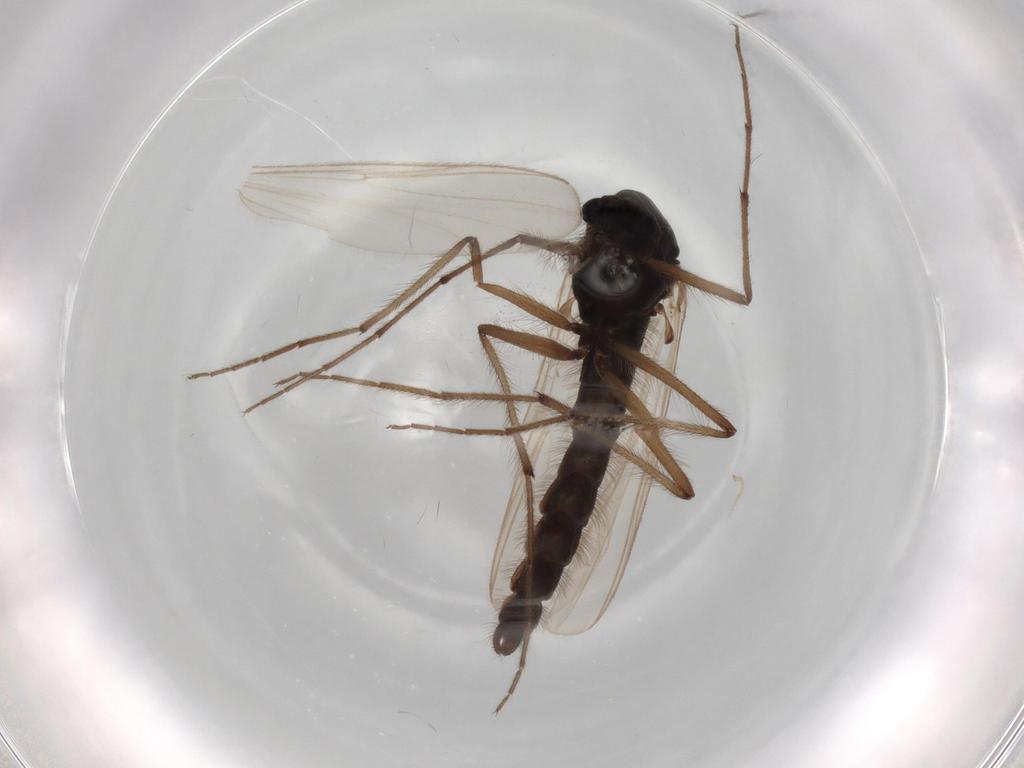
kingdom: Animalia
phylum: Arthropoda
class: Insecta
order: Diptera
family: Dolichopodidae
